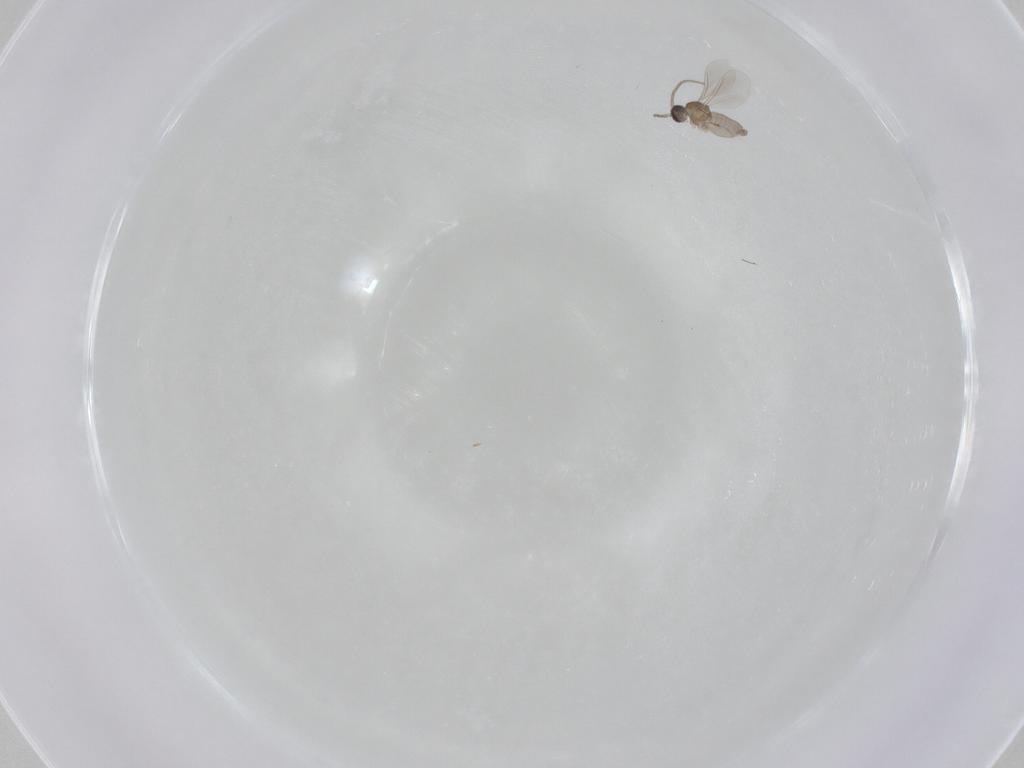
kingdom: Animalia
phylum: Arthropoda
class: Insecta
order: Diptera
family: Cecidomyiidae
